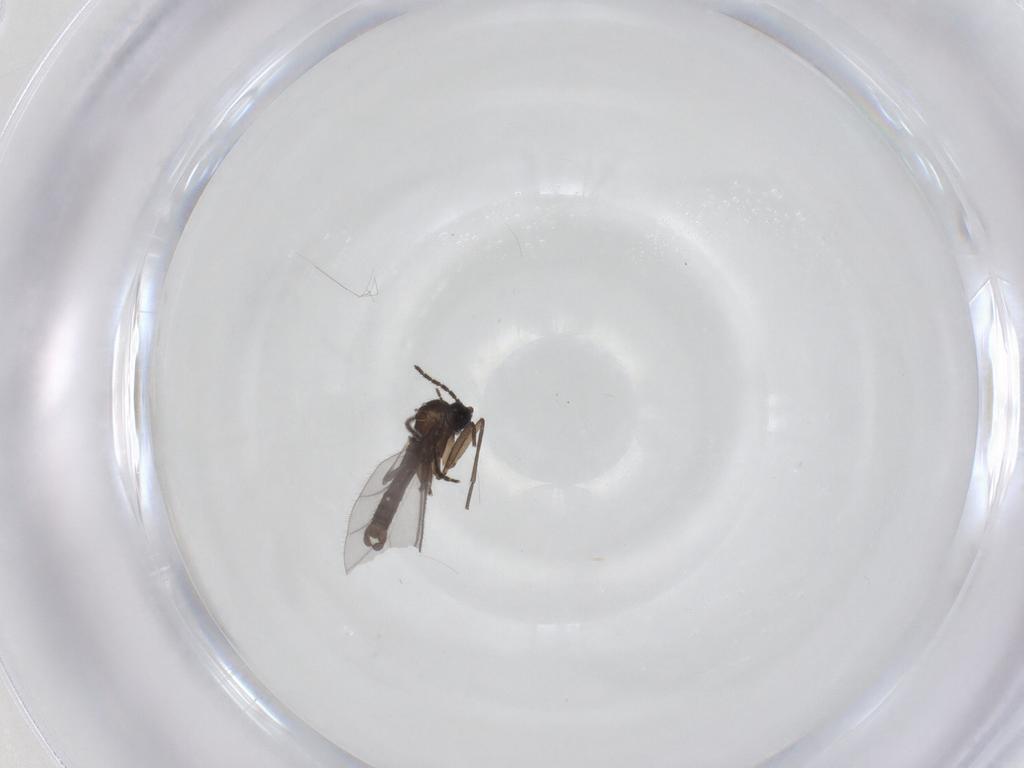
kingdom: Animalia
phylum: Arthropoda
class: Insecta
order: Diptera
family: Sciaridae
